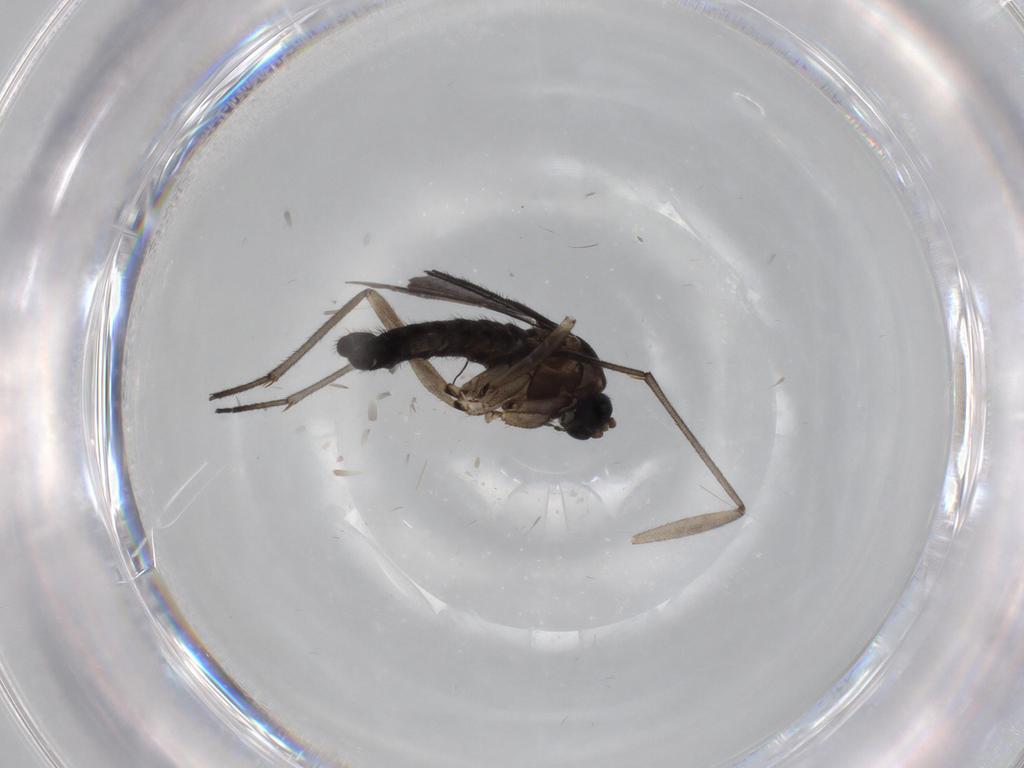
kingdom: Animalia
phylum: Arthropoda
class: Insecta
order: Diptera
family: Sciaridae
